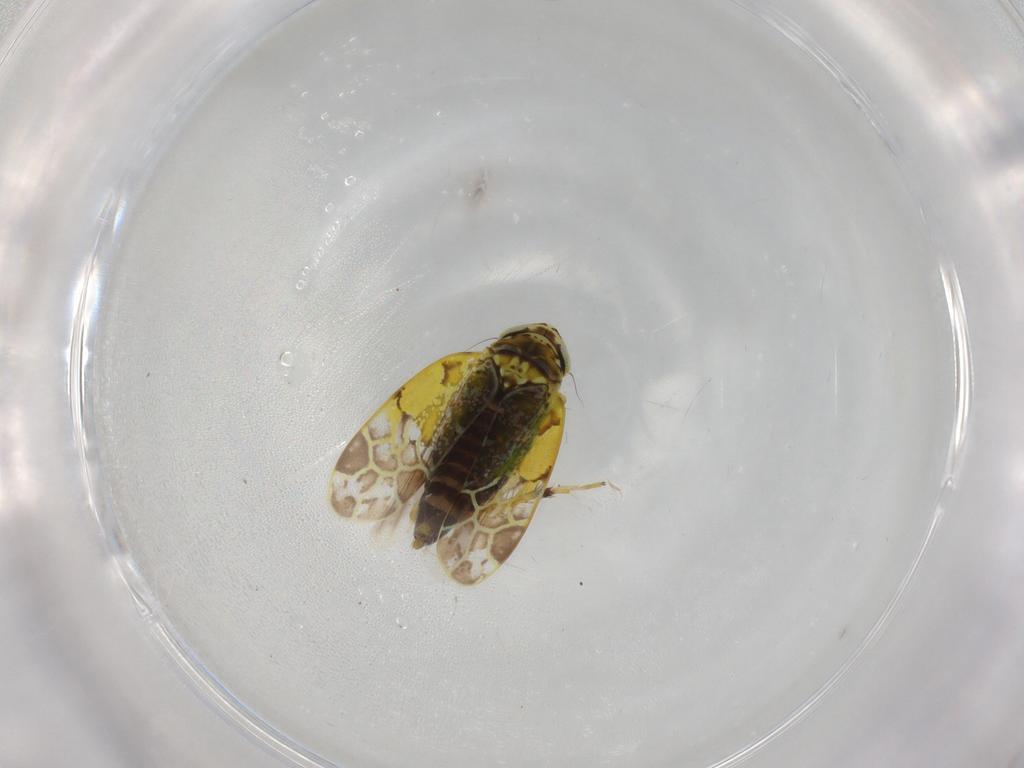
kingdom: Animalia
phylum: Arthropoda
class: Insecta
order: Hemiptera
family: Cicadellidae
